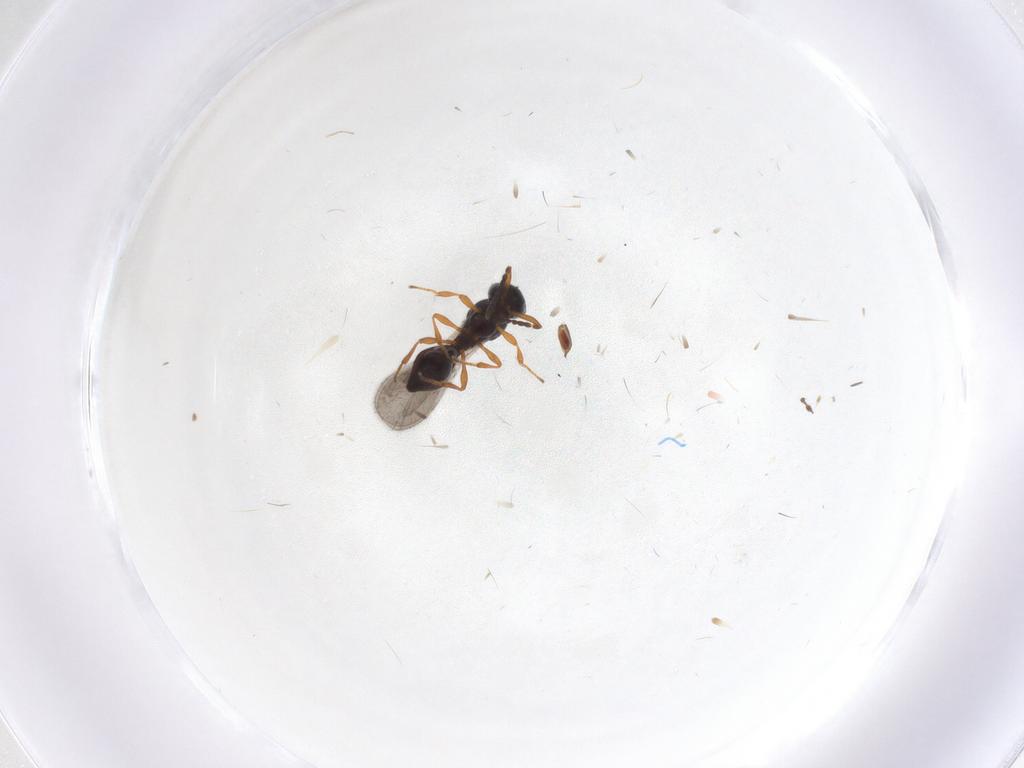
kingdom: Animalia
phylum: Arthropoda
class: Insecta
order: Hymenoptera
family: Platygastridae
